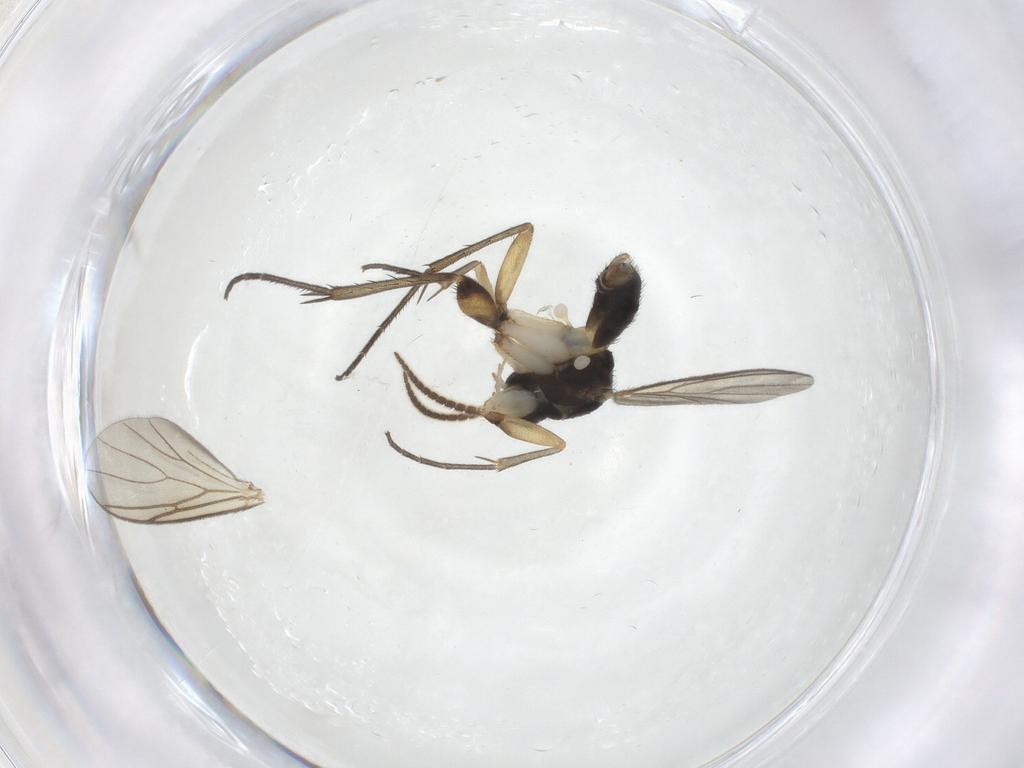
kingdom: Animalia
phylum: Arthropoda
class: Insecta
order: Diptera
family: Mycetophilidae
